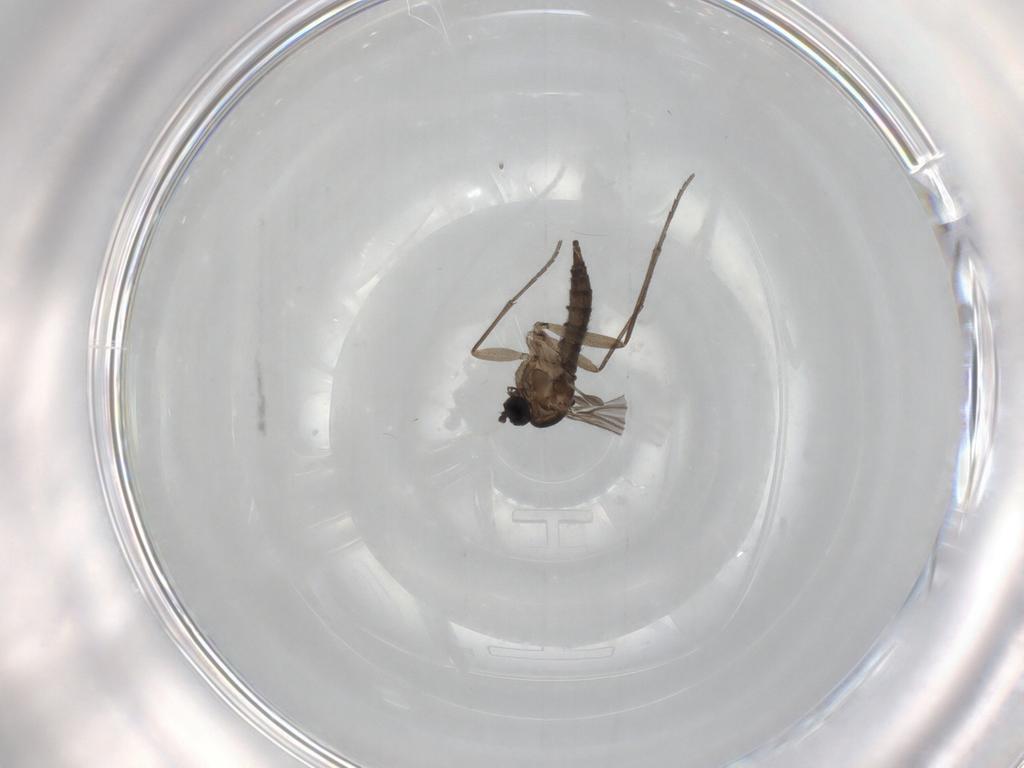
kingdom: Animalia
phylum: Arthropoda
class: Insecta
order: Diptera
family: Sciaridae
